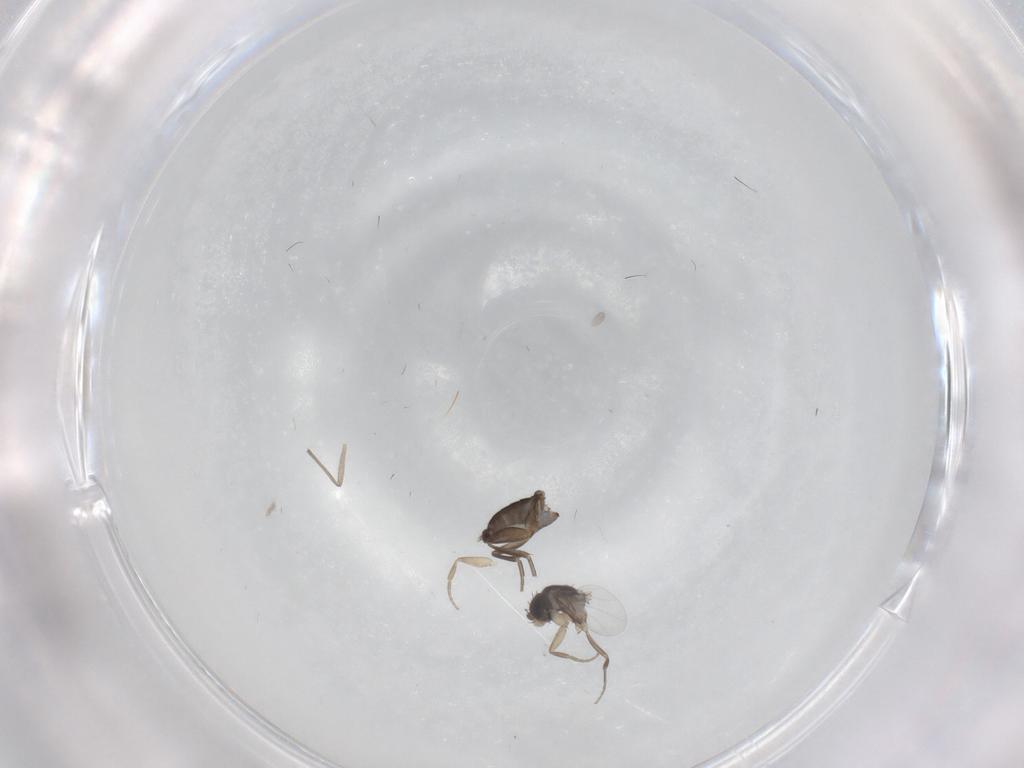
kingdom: Animalia
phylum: Arthropoda
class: Insecta
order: Diptera
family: Chironomidae
